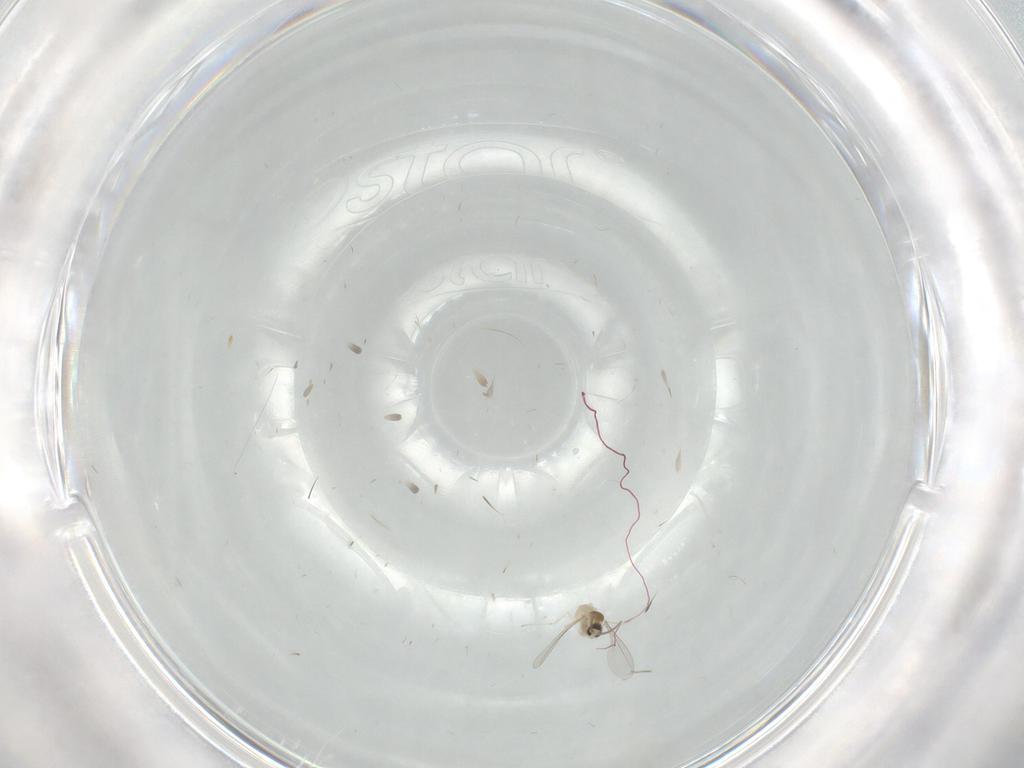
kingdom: Animalia
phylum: Arthropoda
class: Insecta
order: Diptera
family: Cecidomyiidae
